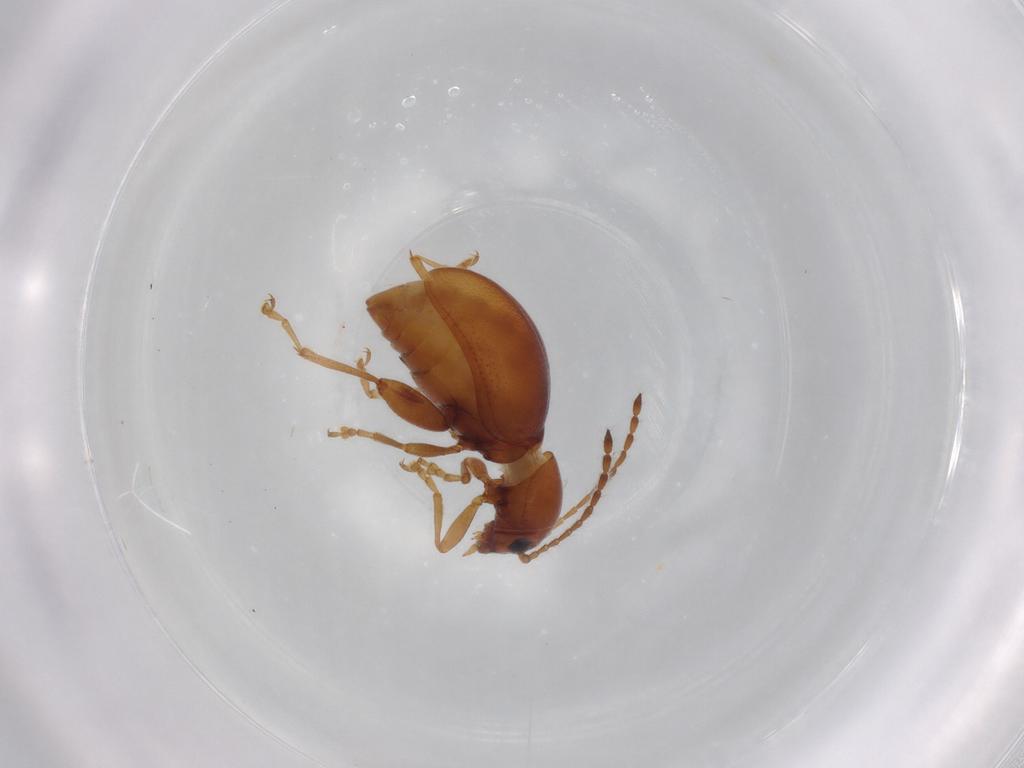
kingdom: Animalia
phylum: Arthropoda
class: Insecta
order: Coleoptera
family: Chrysomelidae
